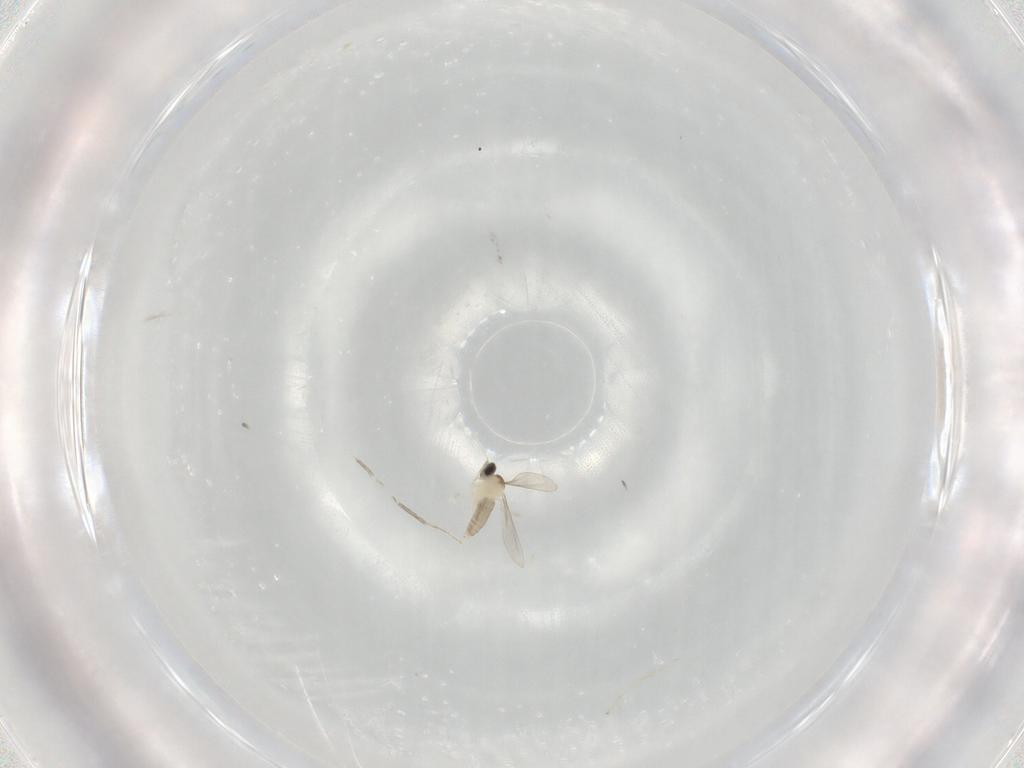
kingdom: Animalia
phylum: Arthropoda
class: Insecta
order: Diptera
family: Cecidomyiidae
